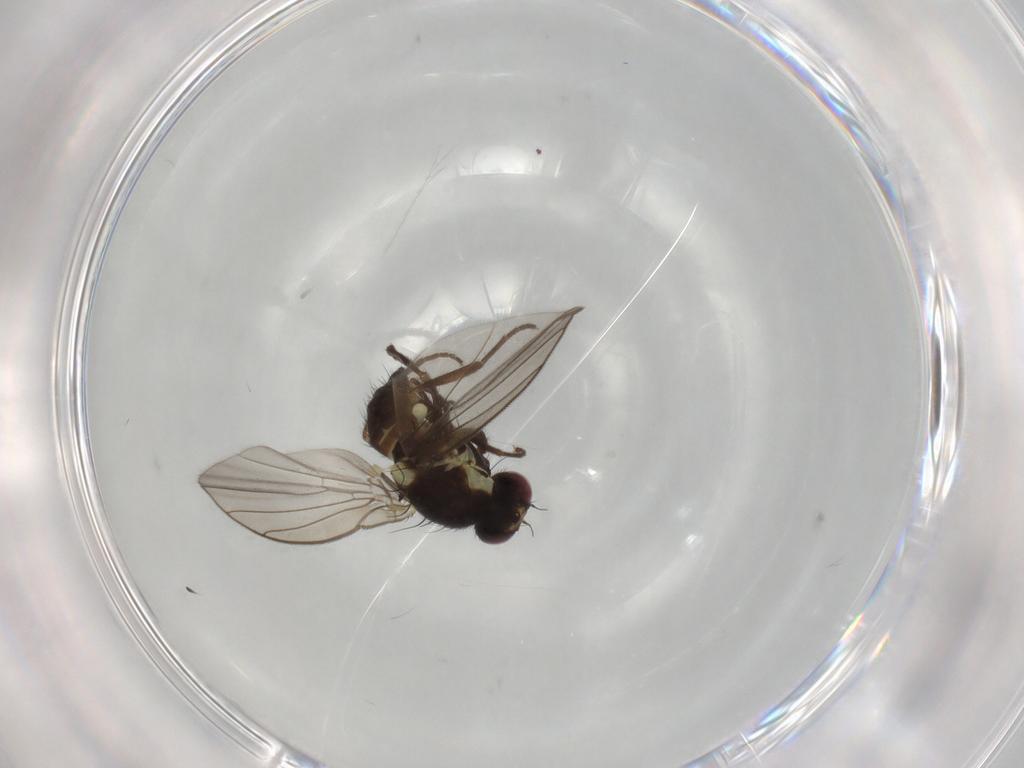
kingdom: Animalia
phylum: Arthropoda
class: Insecta
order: Diptera
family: Agromyzidae
